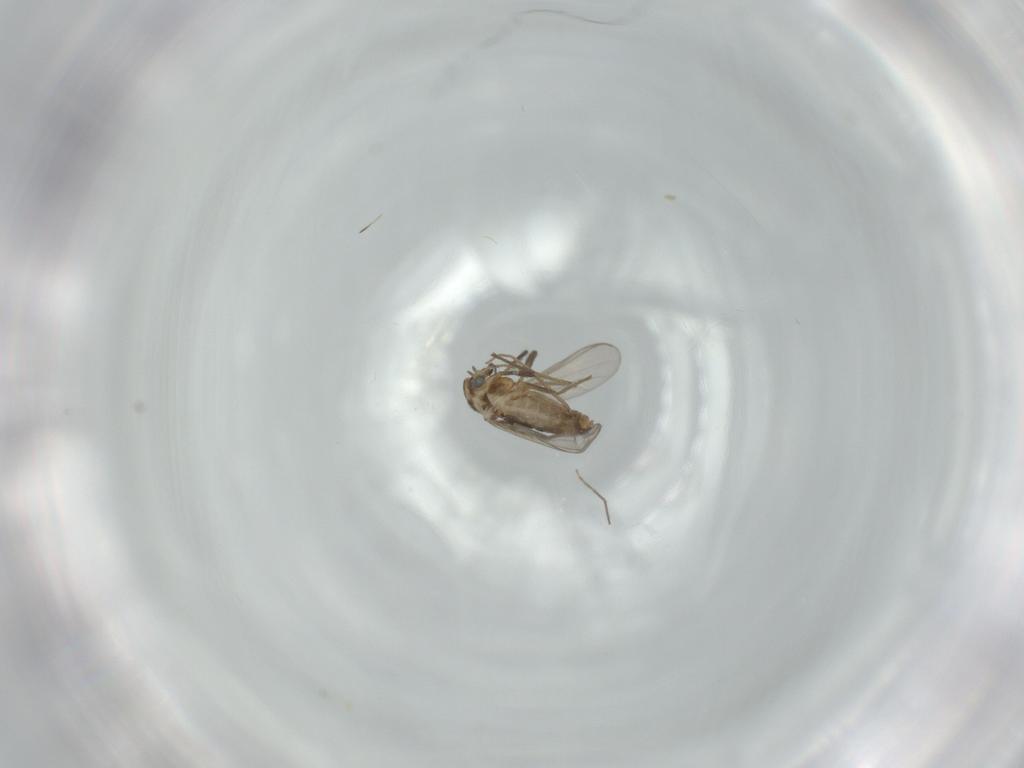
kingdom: Animalia
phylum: Arthropoda
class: Insecta
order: Diptera
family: Chironomidae
